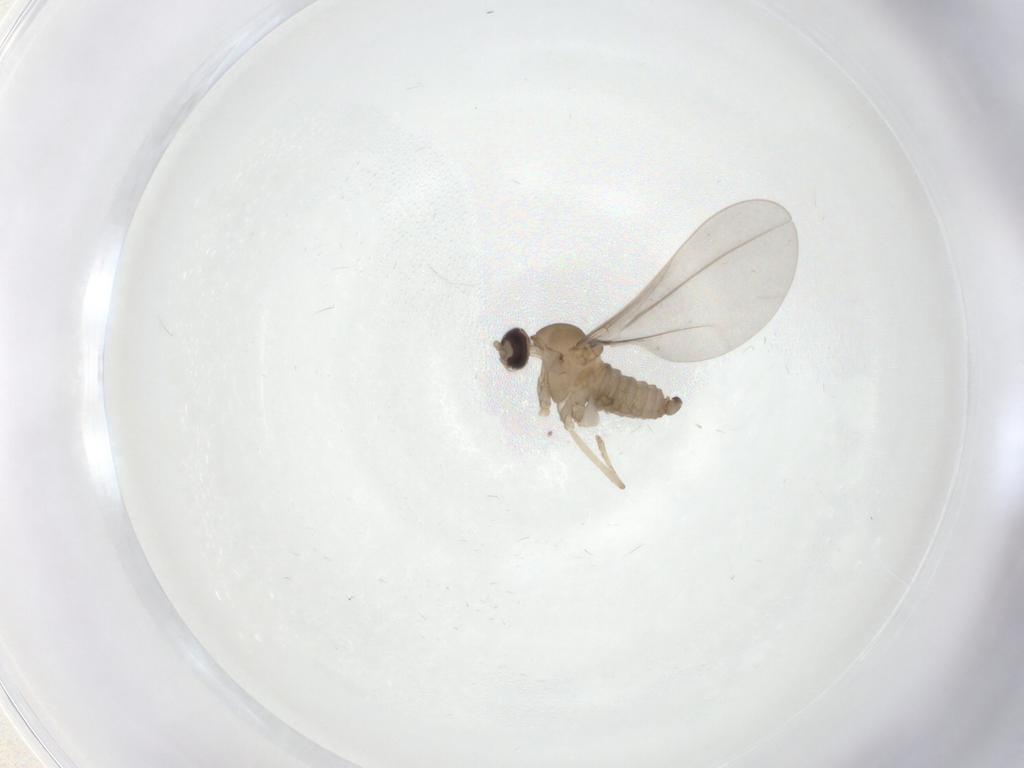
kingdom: Animalia
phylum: Arthropoda
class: Insecta
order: Diptera
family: Cecidomyiidae
